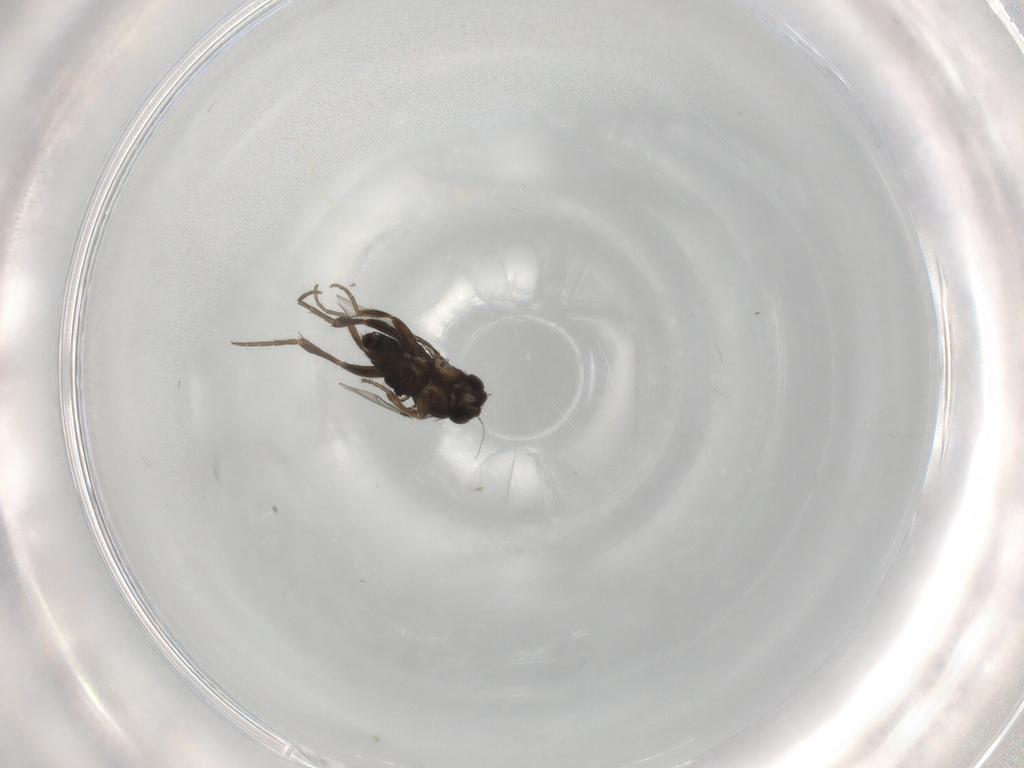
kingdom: Animalia
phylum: Arthropoda
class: Insecta
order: Diptera
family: Phoridae
